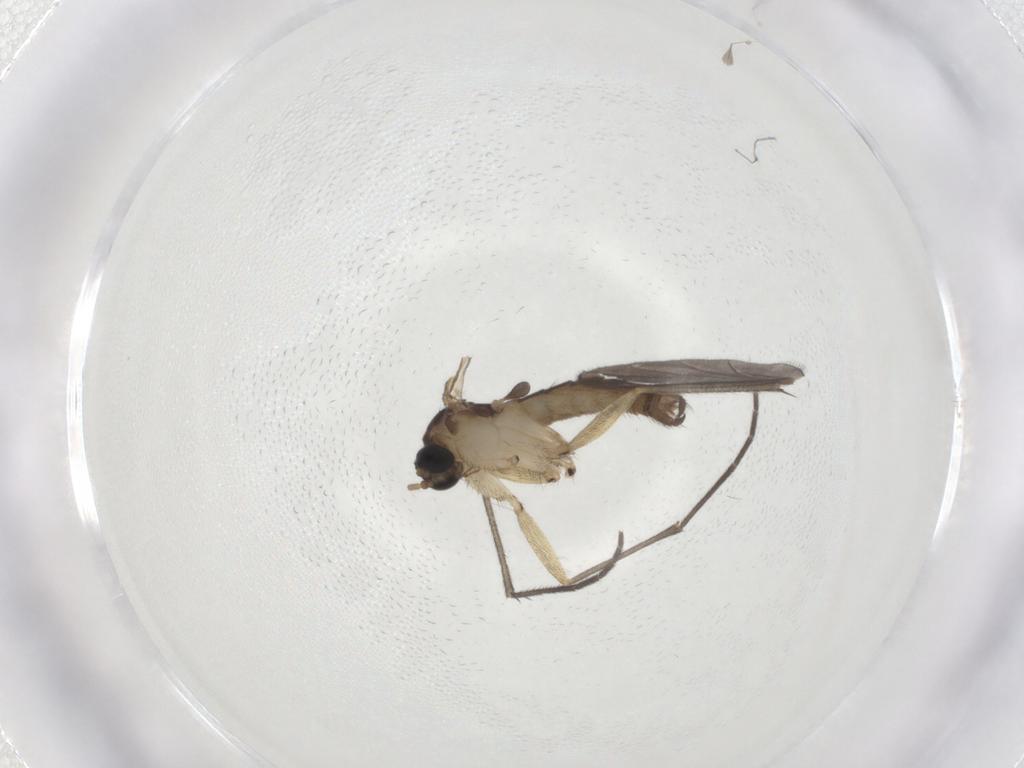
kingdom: Animalia
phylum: Arthropoda
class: Insecta
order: Diptera
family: Sciaridae
